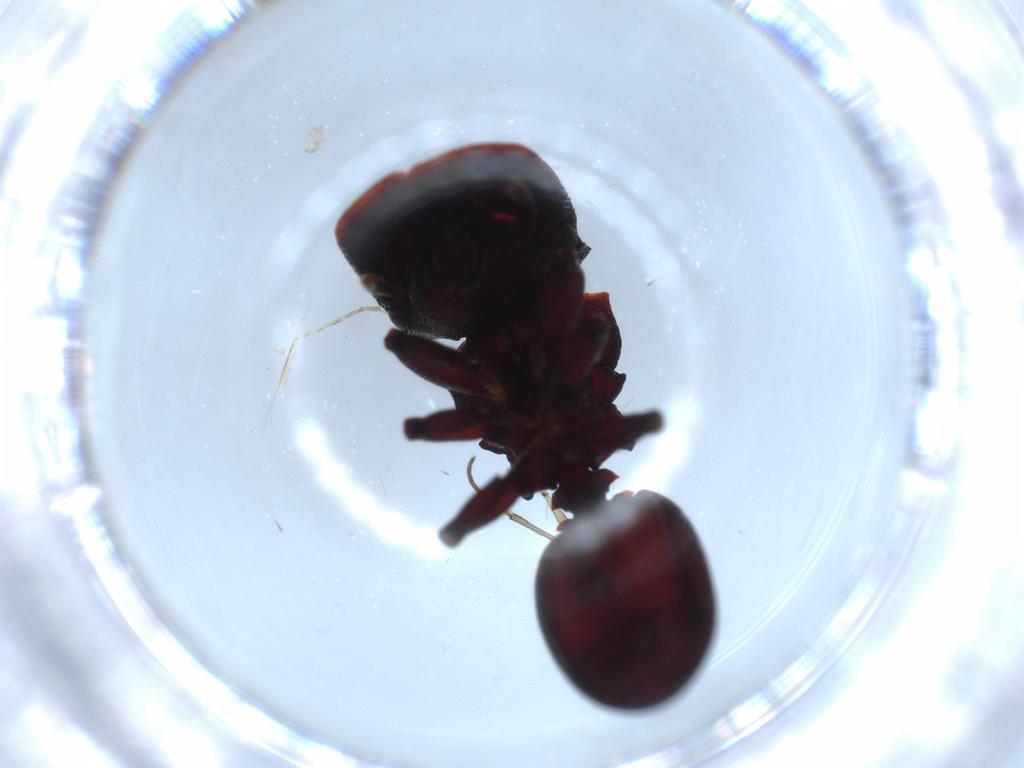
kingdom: Animalia
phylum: Arthropoda
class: Insecta
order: Hymenoptera
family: Formicidae
